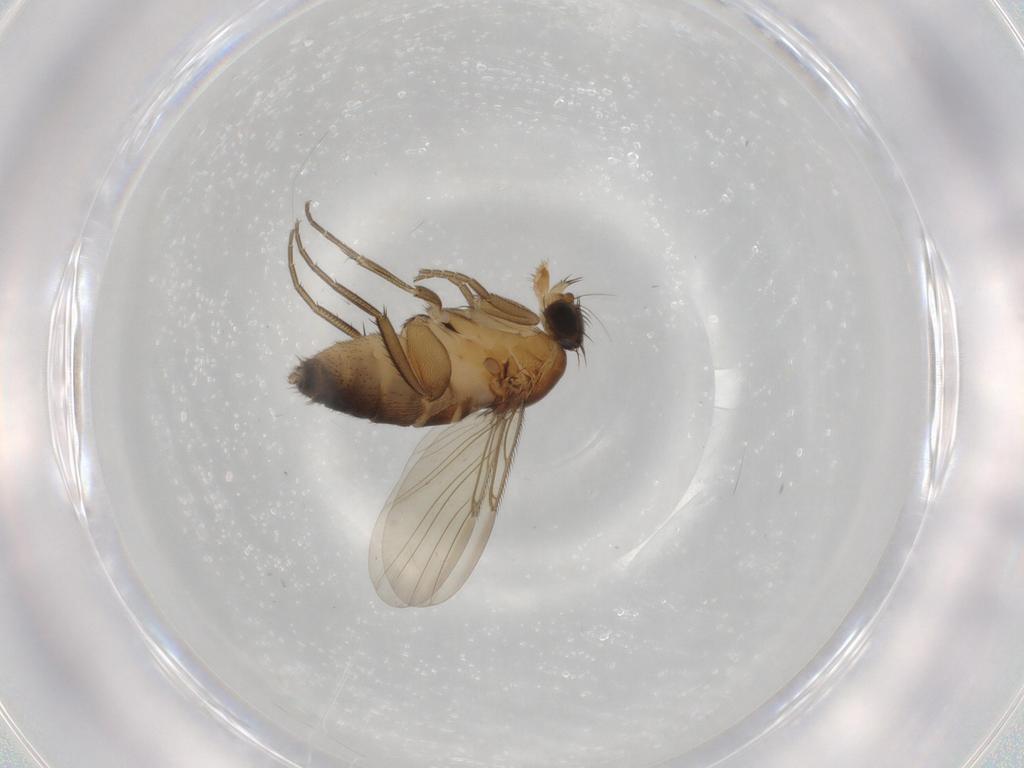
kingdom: Animalia
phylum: Arthropoda
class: Insecta
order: Diptera
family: Phoridae
